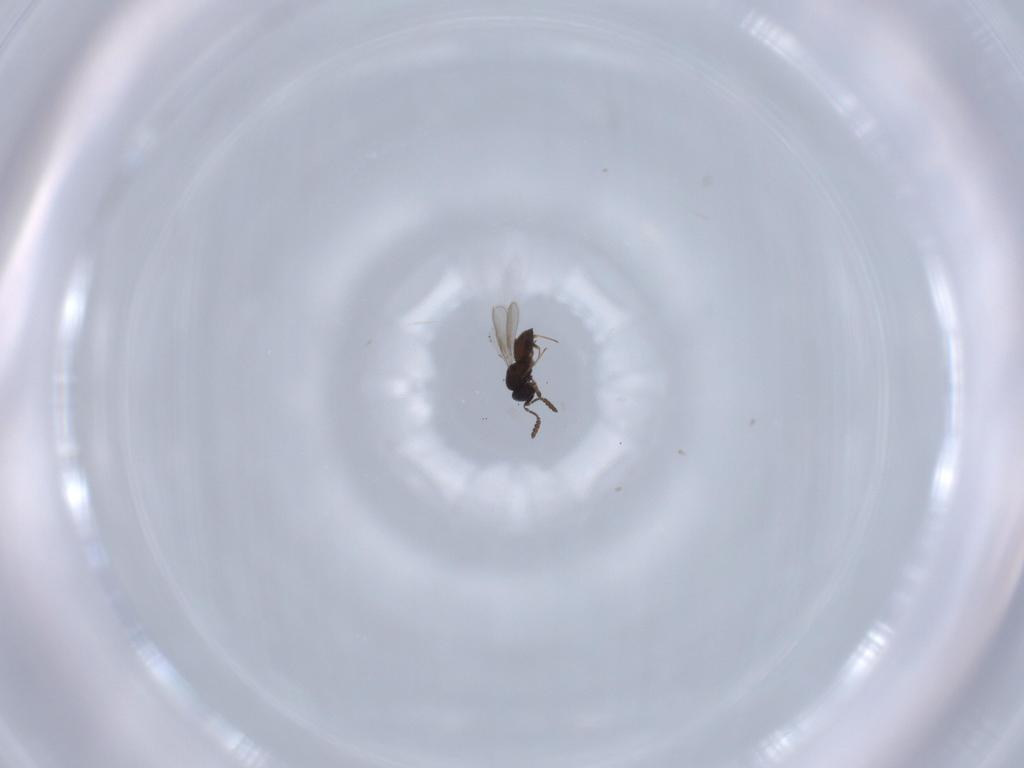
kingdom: Animalia
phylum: Arthropoda
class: Insecta
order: Hymenoptera
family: Scelionidae
